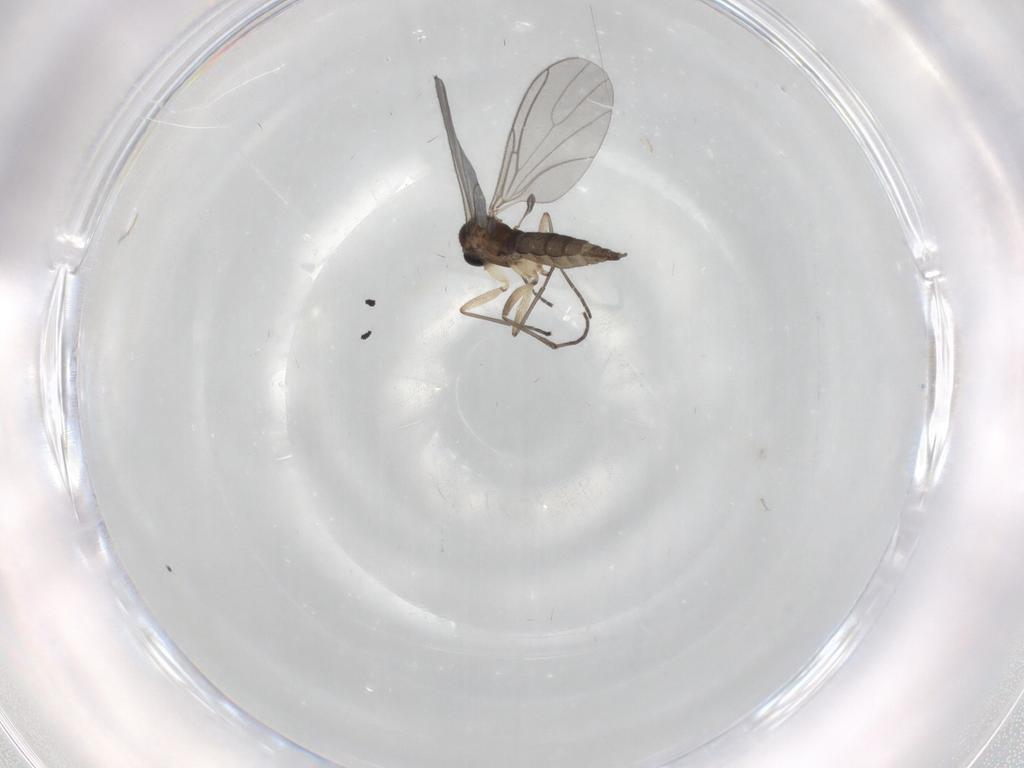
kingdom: Animalia
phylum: Arthropoda
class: Insecta
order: Diptera
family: Sciaridae
